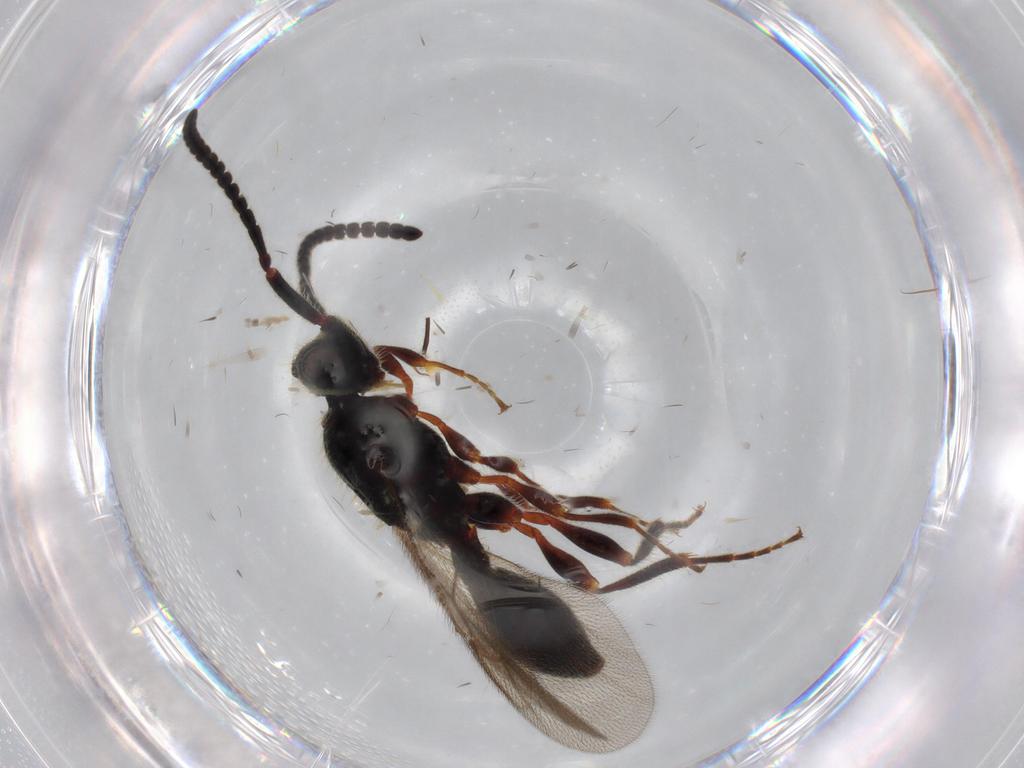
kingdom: Animalia
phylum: Arthropoda
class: Insecta
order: Hymenoptera
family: Diapriidae
